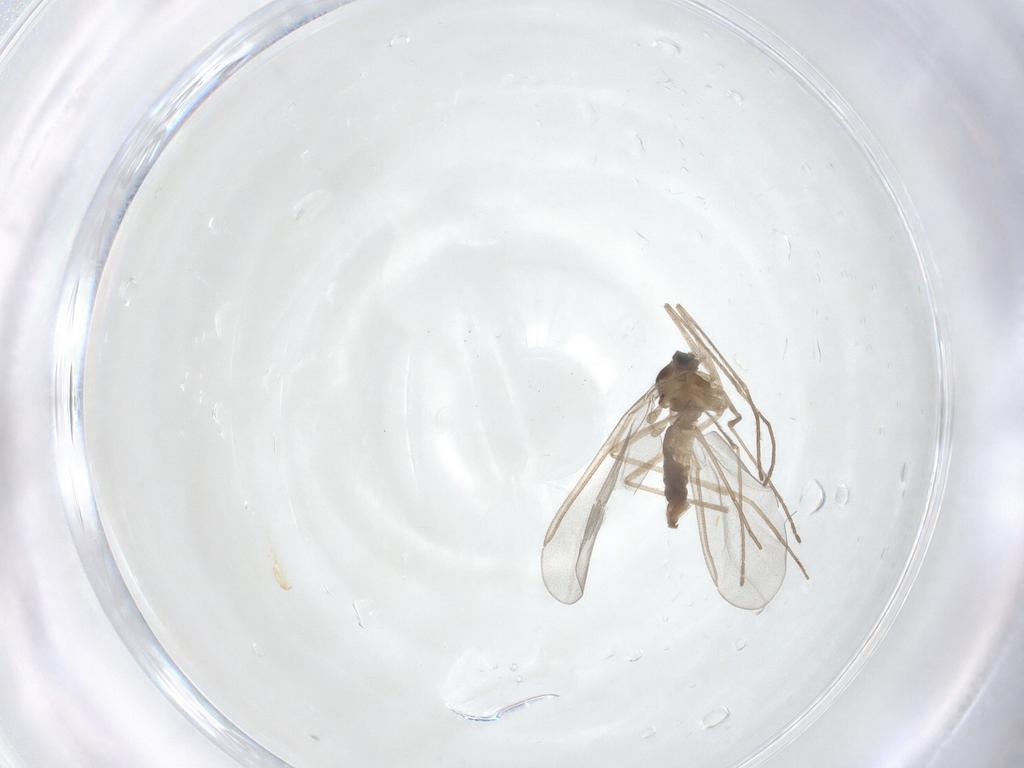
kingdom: Animalia
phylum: Arthropoda
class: Insecta
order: Diptera
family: Cecidomyiidae
